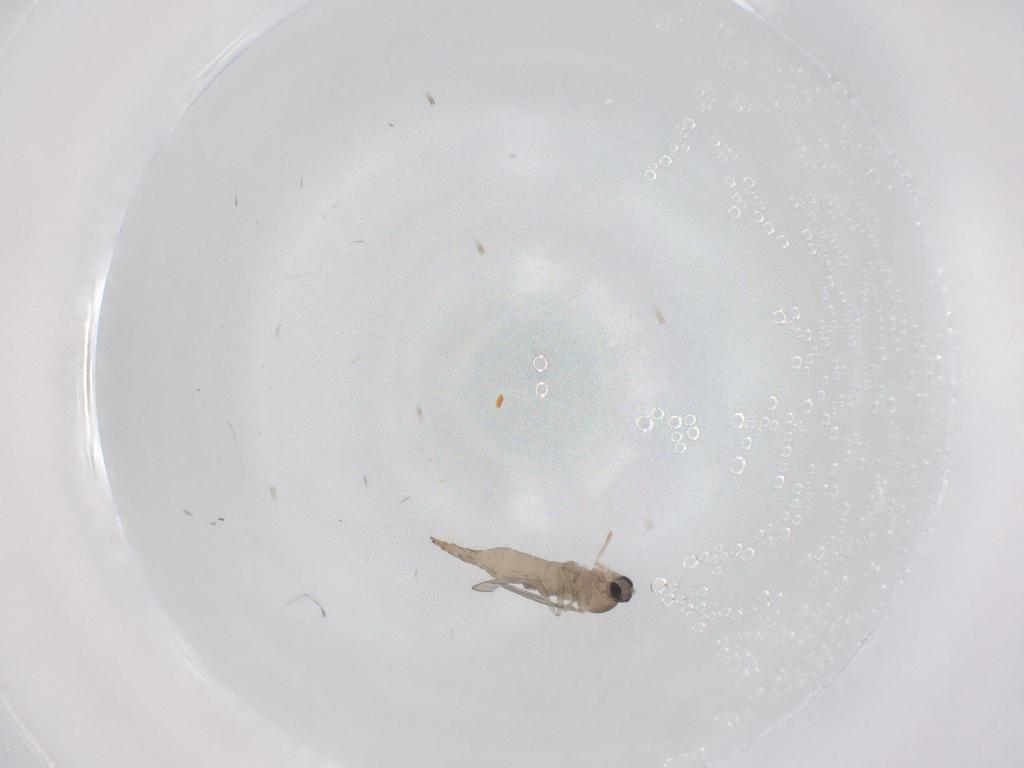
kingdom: Animalia
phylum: Arthropoda
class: Insecta
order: Diptera
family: Cecidomyiidae
